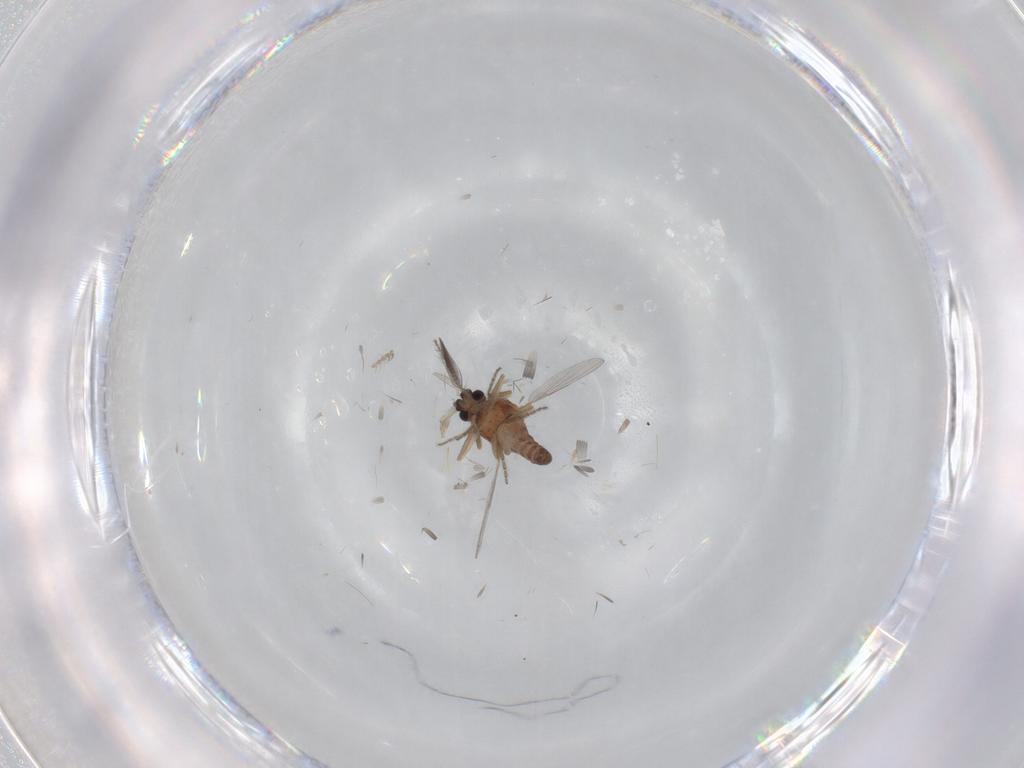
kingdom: Animalia
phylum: Arthropoda
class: Insecta
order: Diptera
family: Ceratopogonidae
